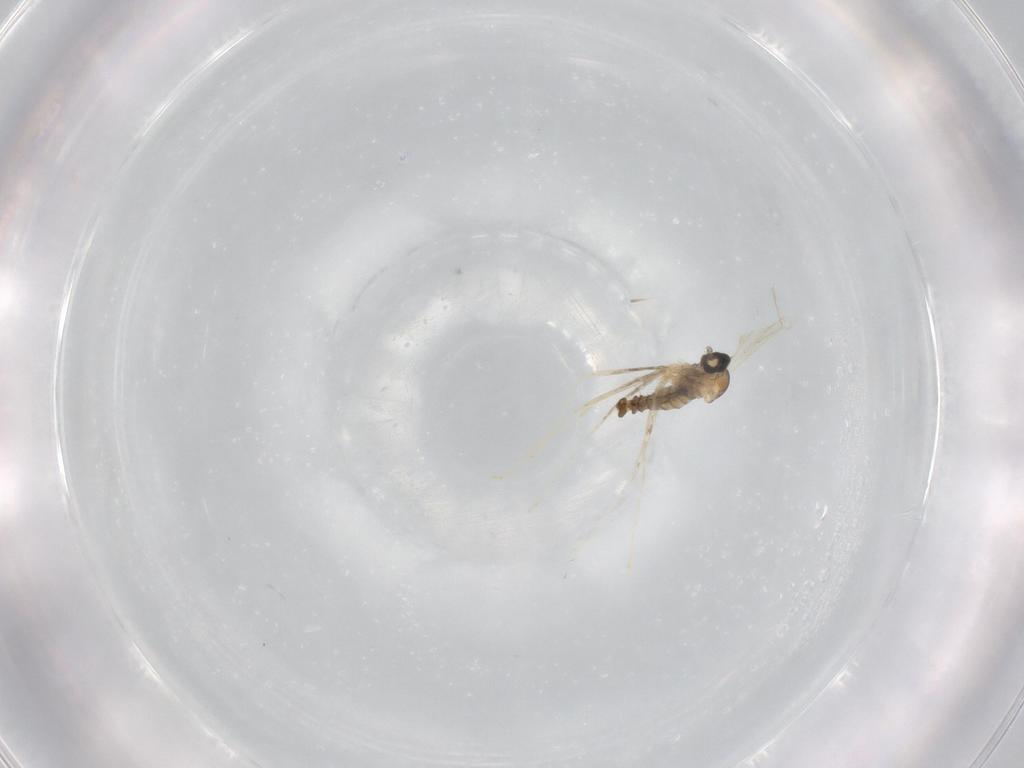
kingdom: Animalia
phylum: Arthropoda
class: Insecta
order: Diptera
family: Cecidomyiidae
